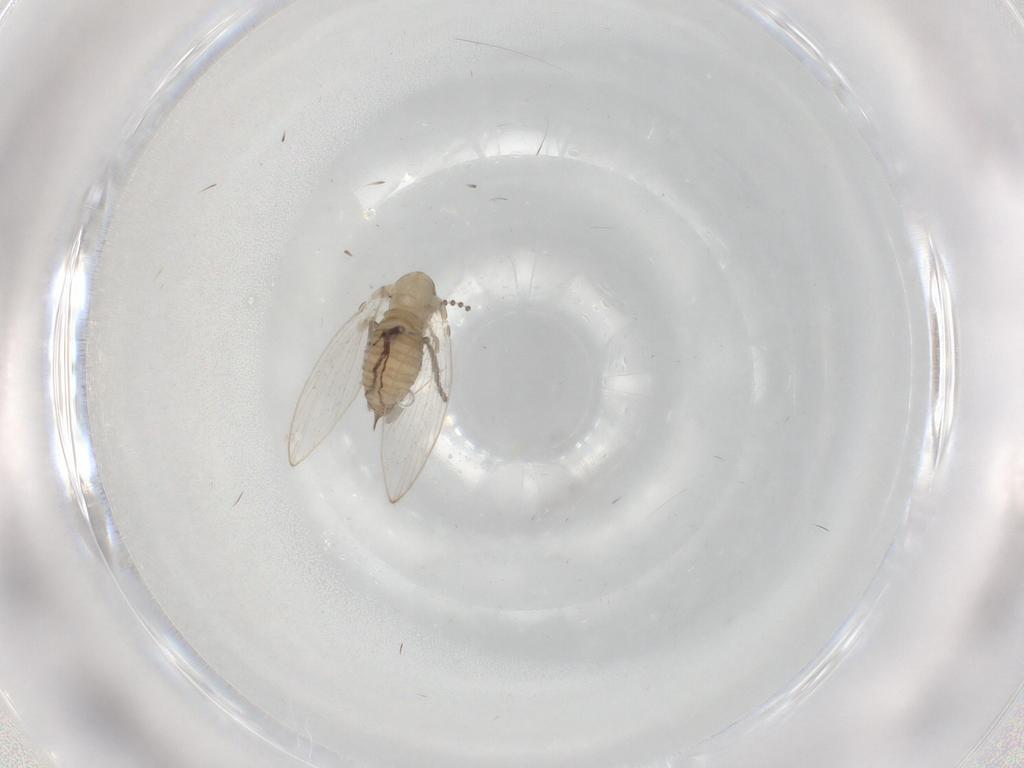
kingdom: Animalia
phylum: Arthropoda
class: Insecta
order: Diptera
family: Psychodidae
